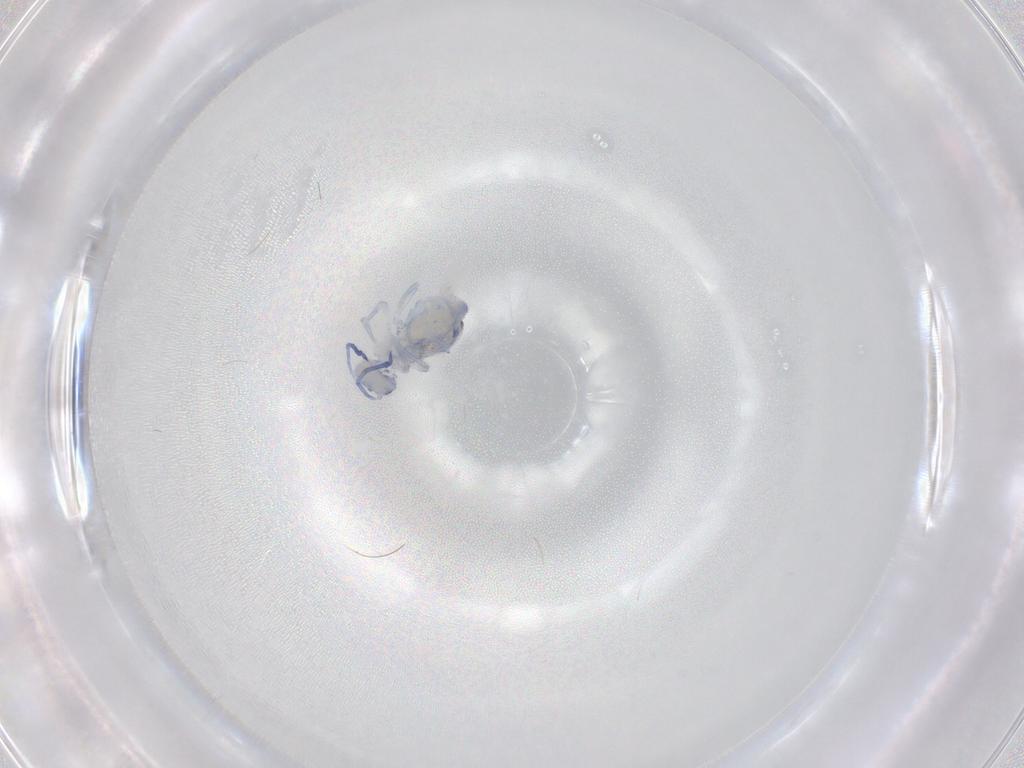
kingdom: Animalia
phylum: Arthropoda
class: Collembola
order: Symphypleona
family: Dicyrtomidae
